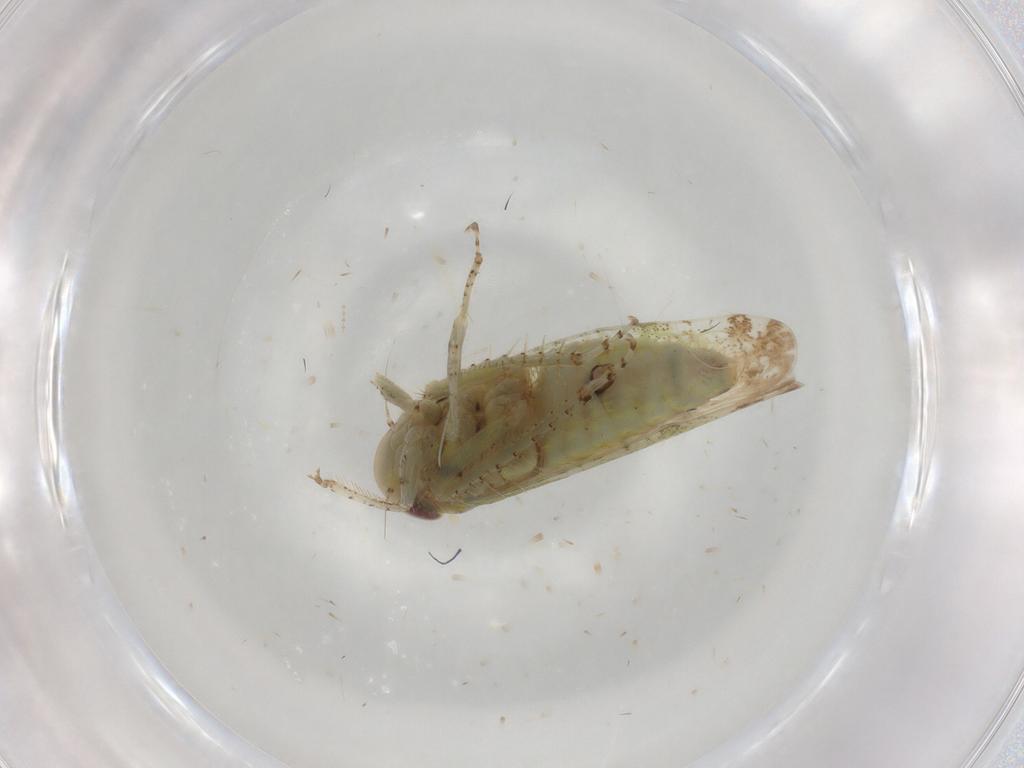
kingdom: Animalia
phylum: Arthropoda
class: Insecta
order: Hemiptera
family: Cicadellidae
